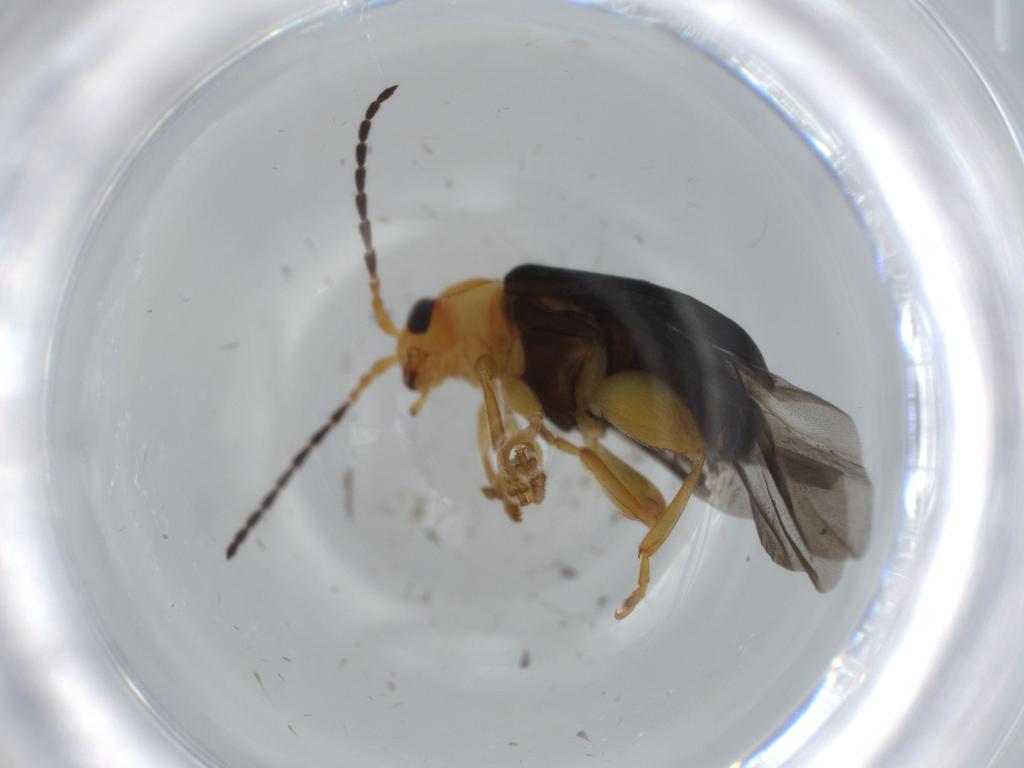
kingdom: Animalia
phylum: Arthropoda
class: Insecta
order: Coleoptera
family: Chrysomelidae
